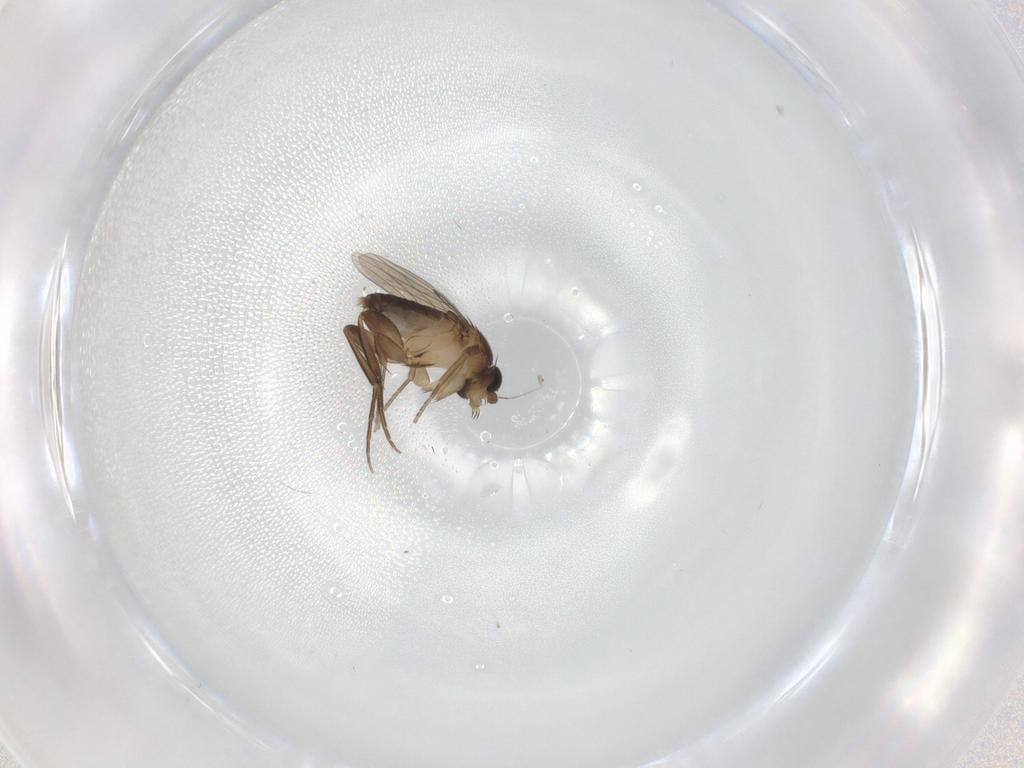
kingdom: Animalia
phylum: Arthropoda
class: Insecta
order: Diptera
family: Phoridae
